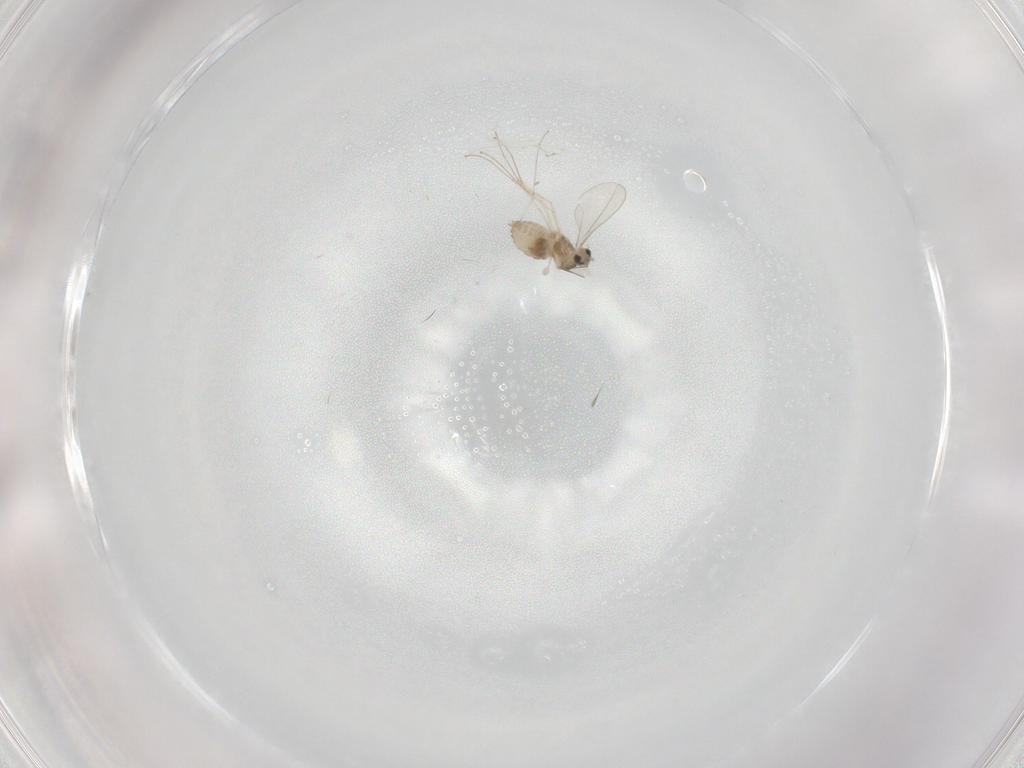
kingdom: Animalia
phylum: Arthropoda
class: Insecta
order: Diptera
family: Cecidomyiidae
